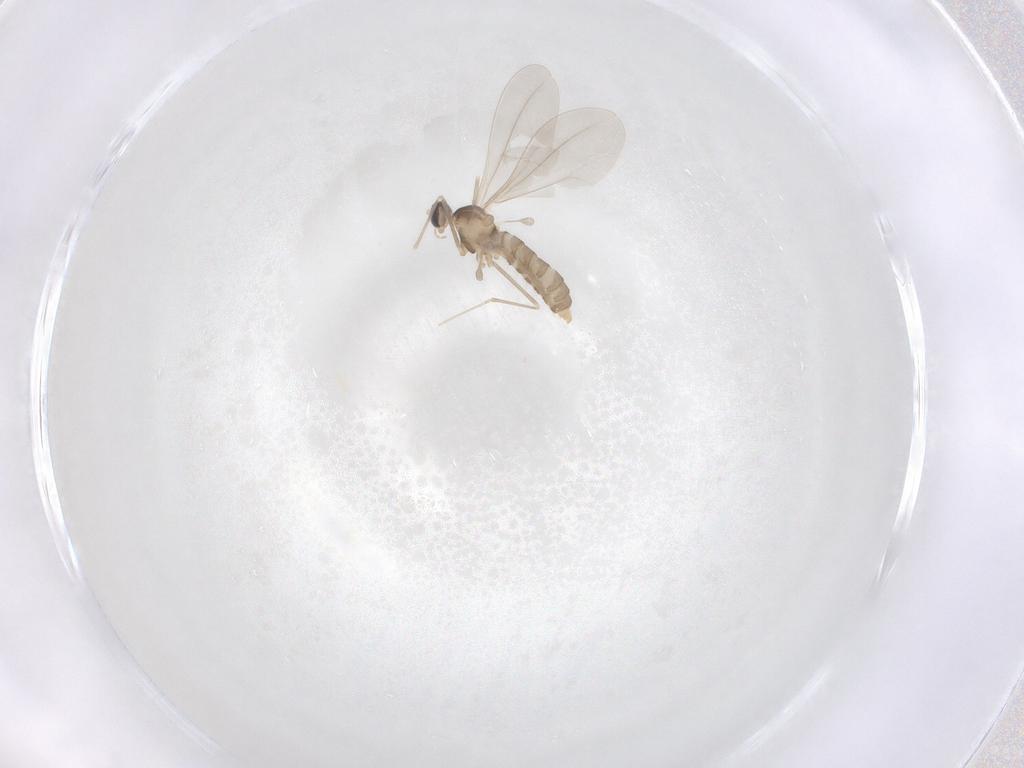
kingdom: Animalia
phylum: Arthropoda
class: Insecta
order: Diptera
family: Cecidomyiidae
